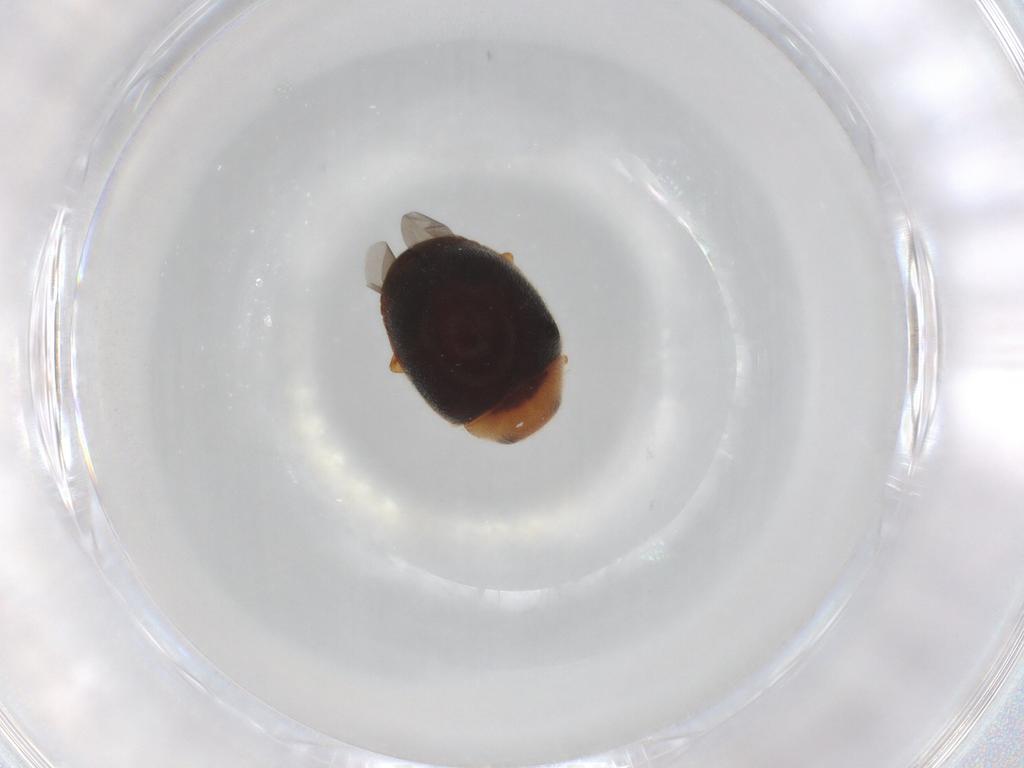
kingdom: Animalia
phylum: Arthropoda
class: Insecta
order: Coleoptera
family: Coccinellidae
